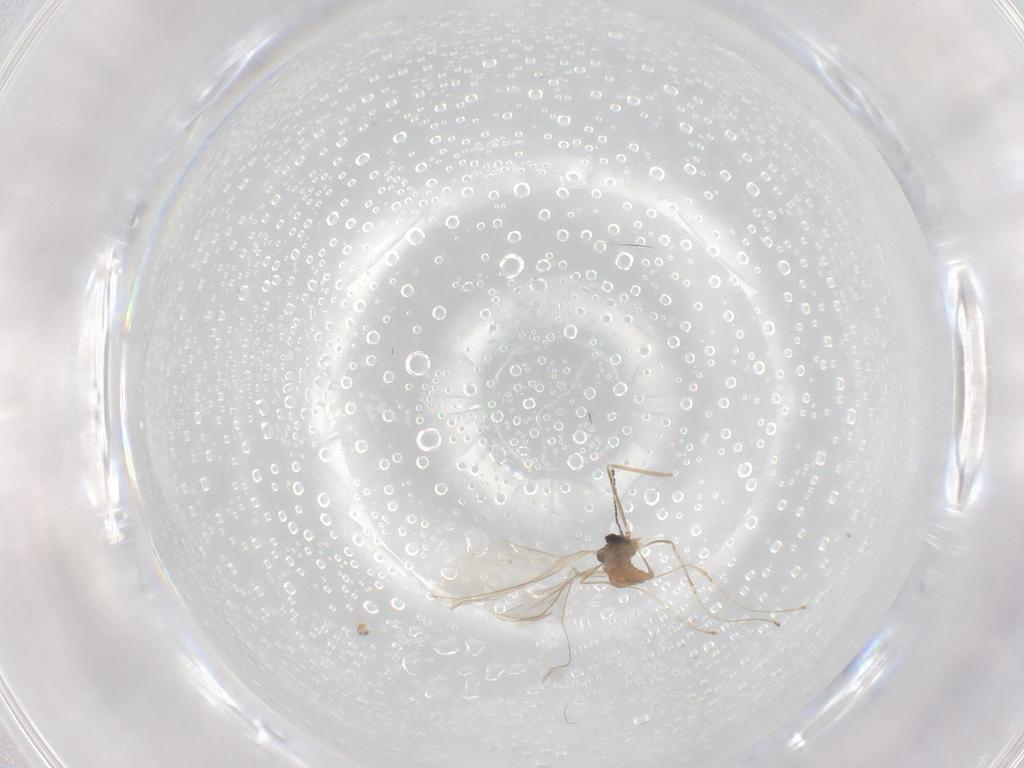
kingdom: Animalia
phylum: Arthropoda
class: Insecta
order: Diptera
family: Cecidomyiidae
